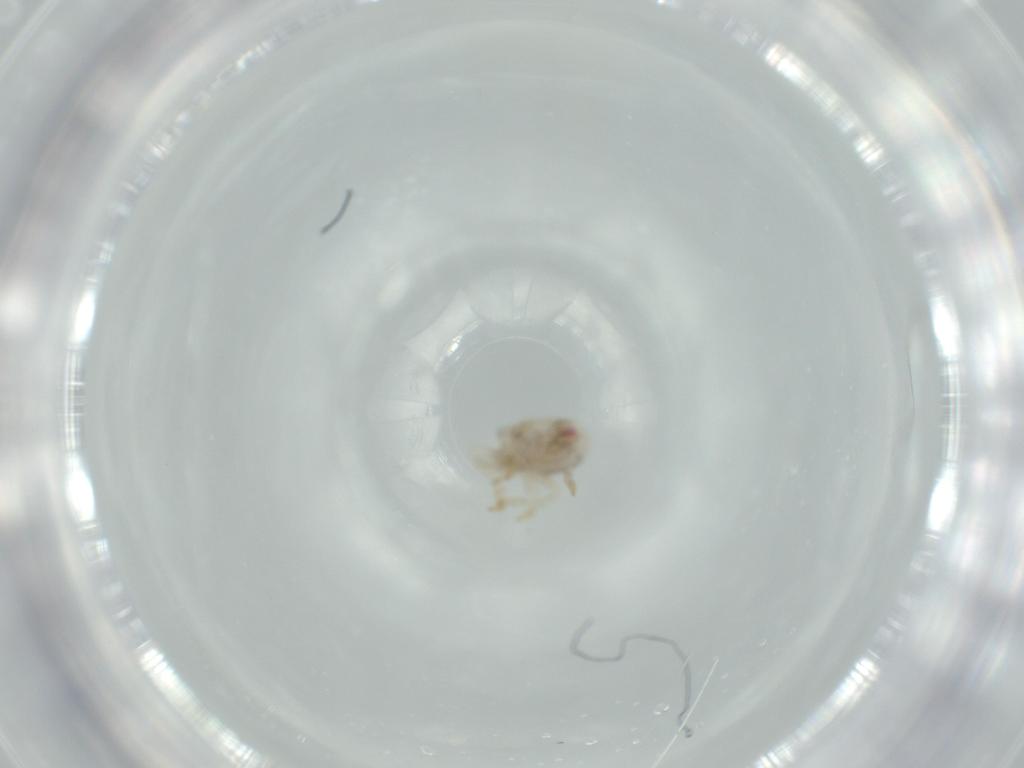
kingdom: Animalia
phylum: Arthropoda
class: Insecta
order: Hemiptera
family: Acanaloniidae
